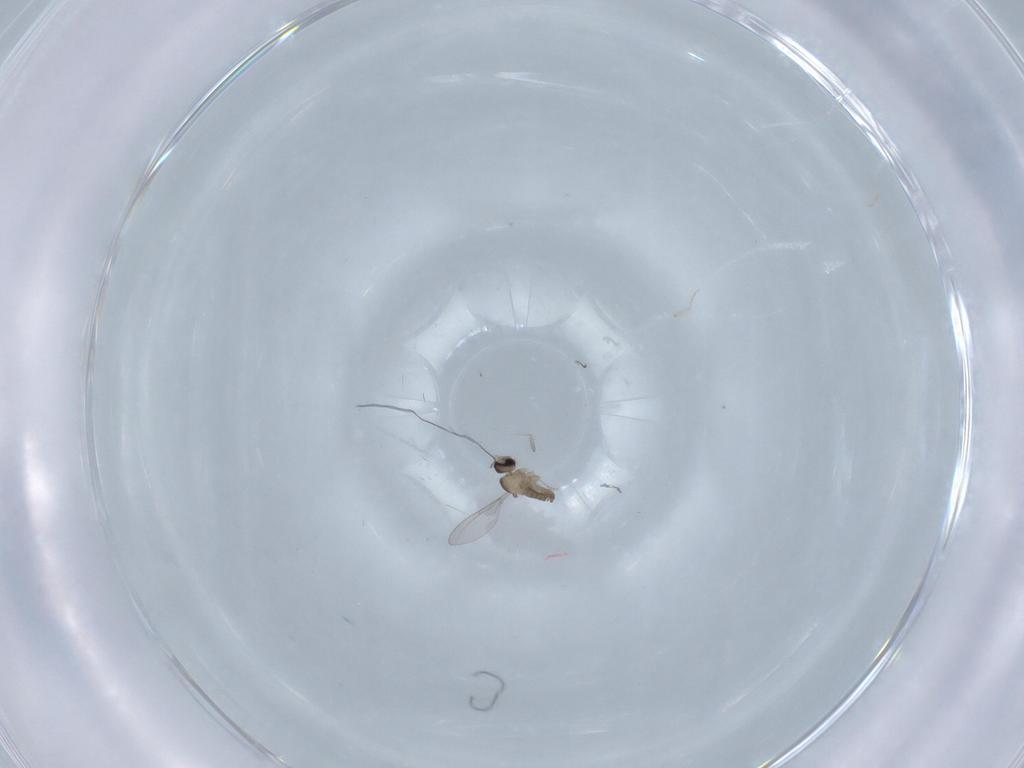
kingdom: Animalia
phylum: Arthropoda
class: Insecta
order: Diptera
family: Cecidomyiidae
